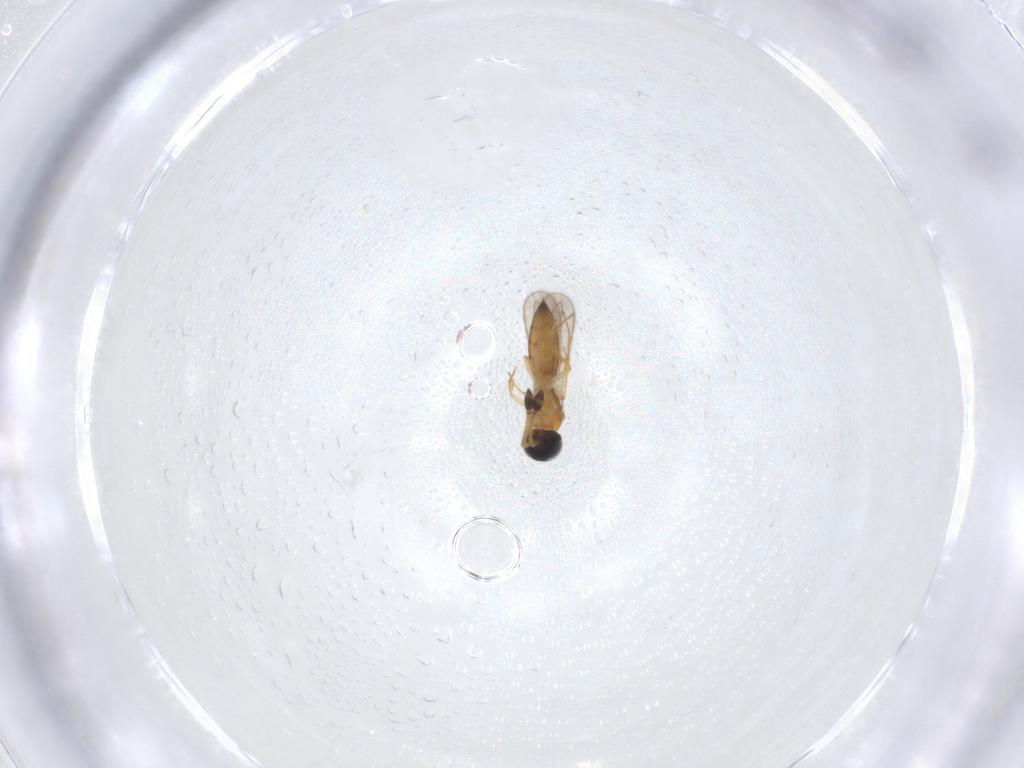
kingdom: Animalia
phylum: Arthropoda
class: Insecta
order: Hymenoptera
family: Scelionidae
